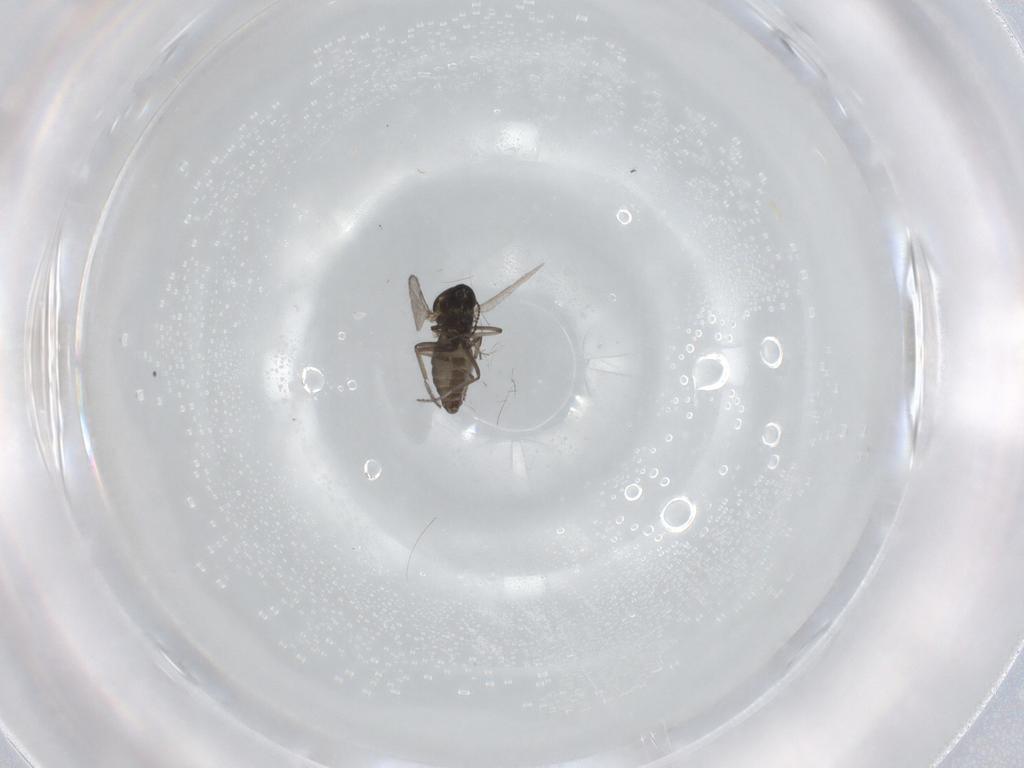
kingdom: Animalia
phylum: Arthropoda
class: Insecta
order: Diptera
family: Ceratopogonidae
